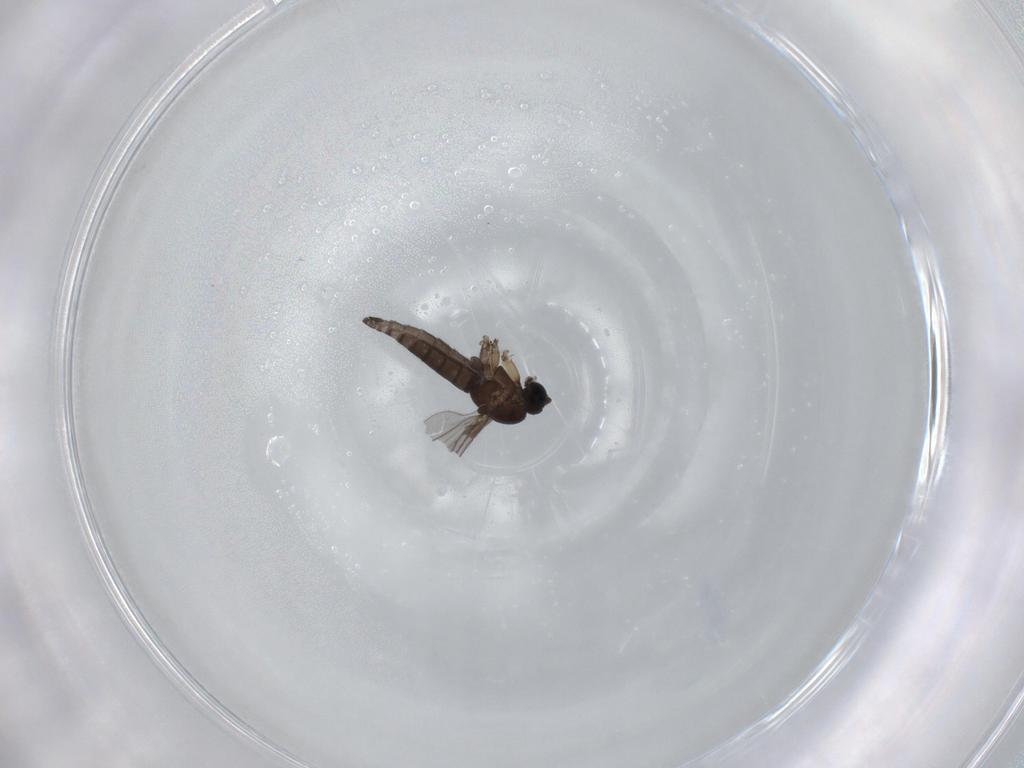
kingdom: Animalia
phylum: Arthropoda
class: Insecta
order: Diptera
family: Sciaridae
